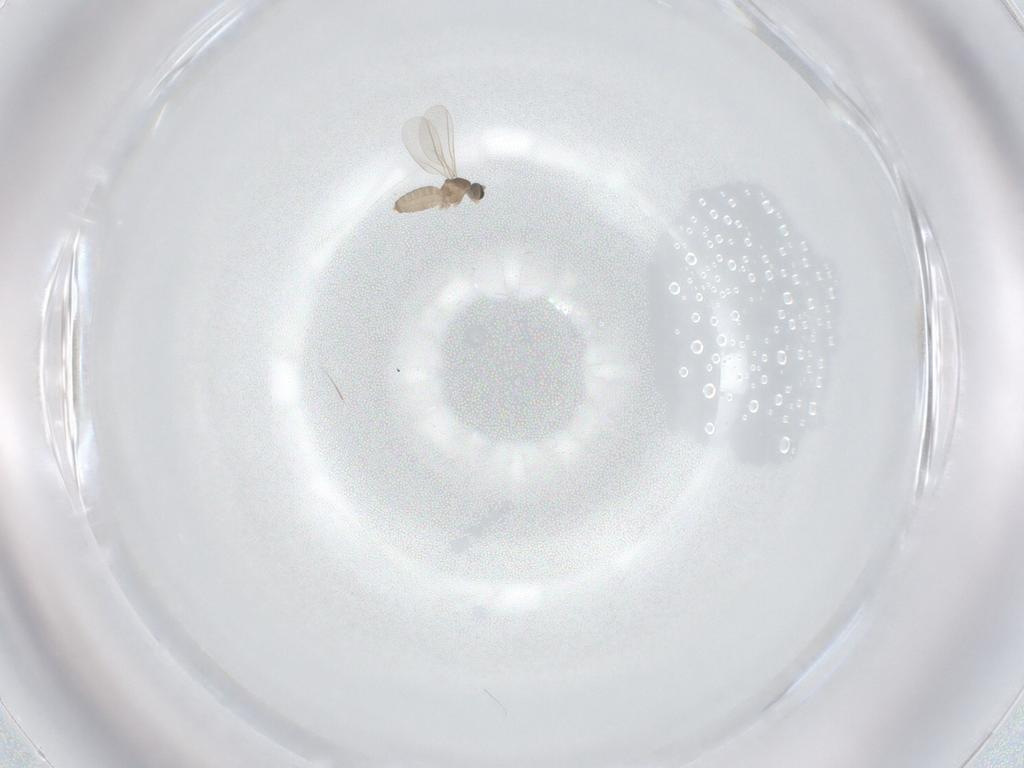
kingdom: Animalia
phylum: Arthropoda
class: Insecta
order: Diptera
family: Cecidomyiidae
